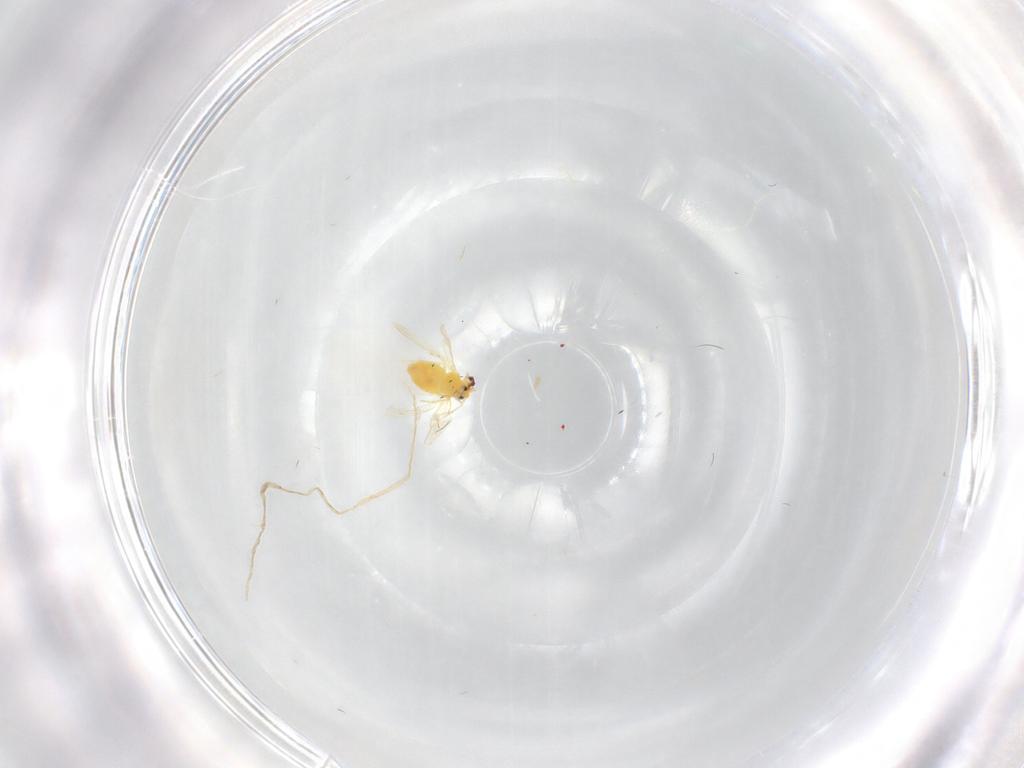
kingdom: Animalia
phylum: Arthropoda
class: Insecta
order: Hemiptera
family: Aleyrodidae
